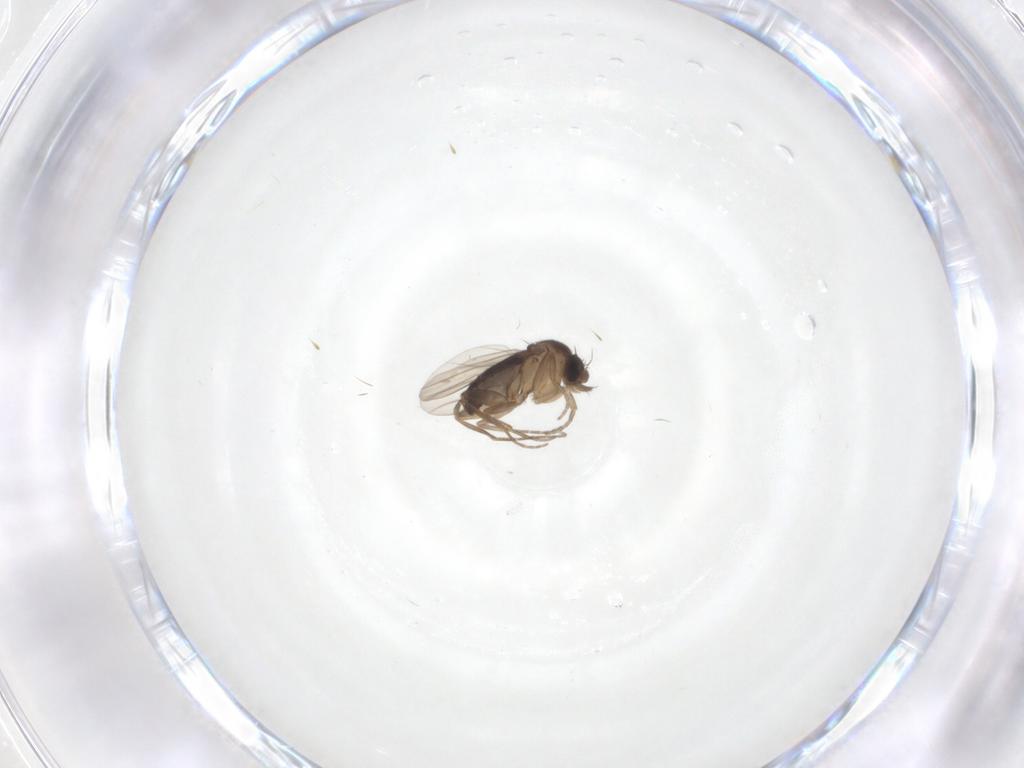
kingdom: Animalia
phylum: Arthropoda
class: Insecta
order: Diptera
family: Phoridae
